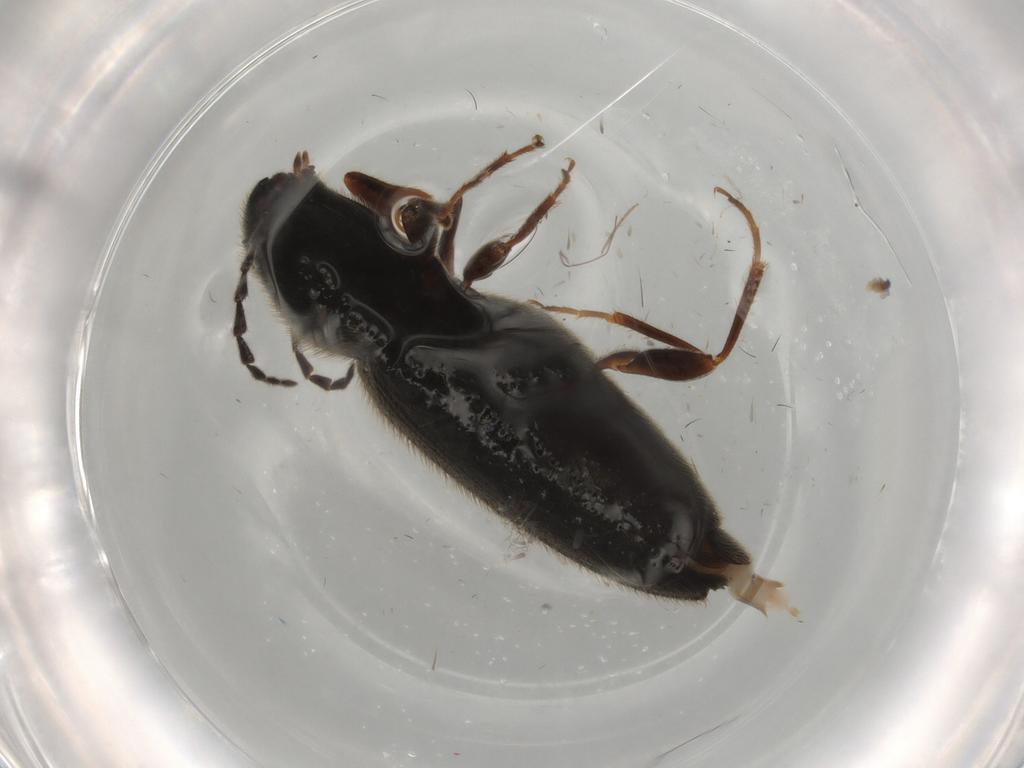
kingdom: Animalia
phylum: Arthropoda
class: Insecta
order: Coleoptera
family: Elateridae
